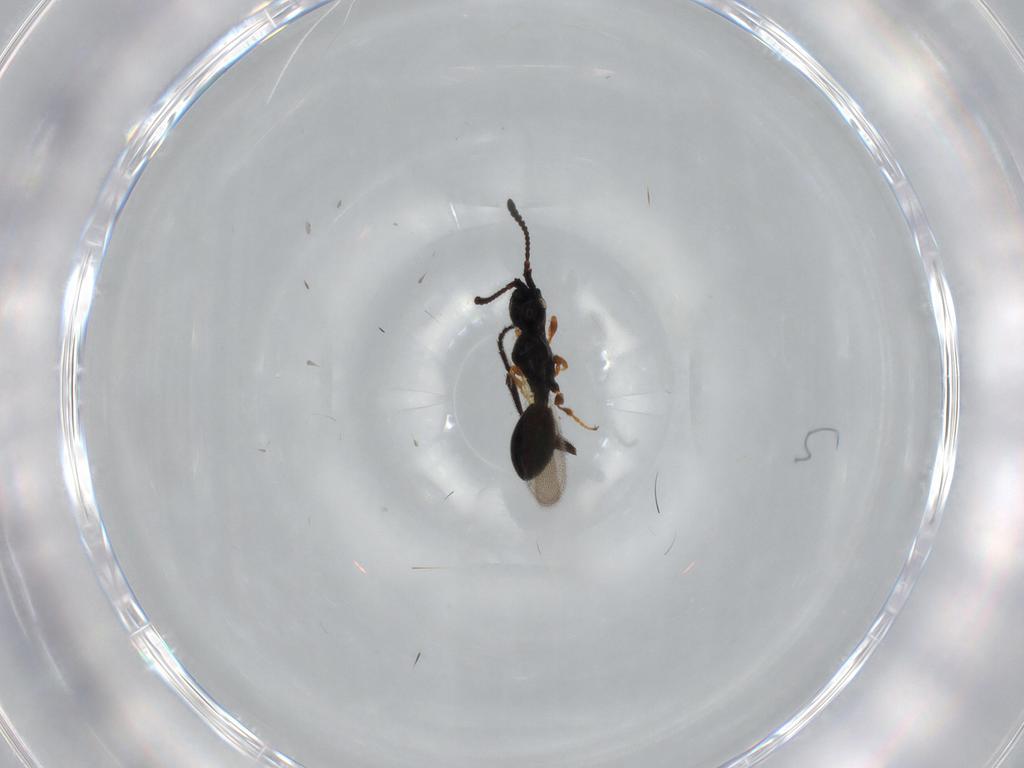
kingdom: Animalia
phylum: Arthropoda
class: Insecta
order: Hymenoptera
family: Diapriidae
